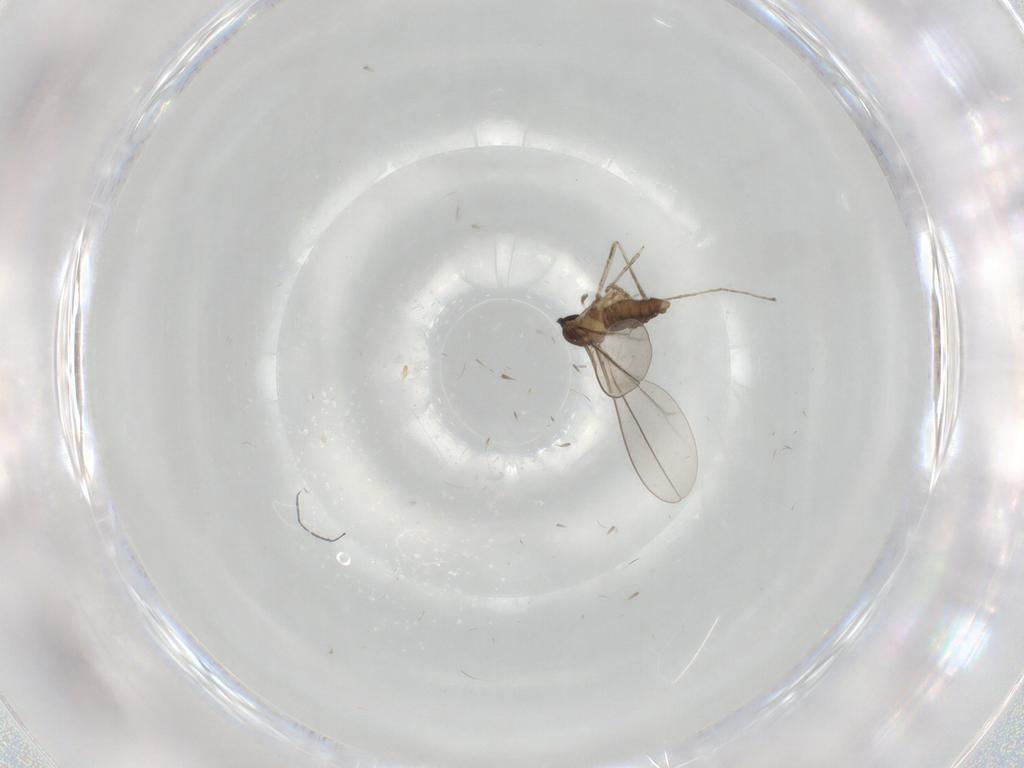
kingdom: Animalia
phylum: Arthropoda
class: Insecta
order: Diptera
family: Cecidomyiidae
